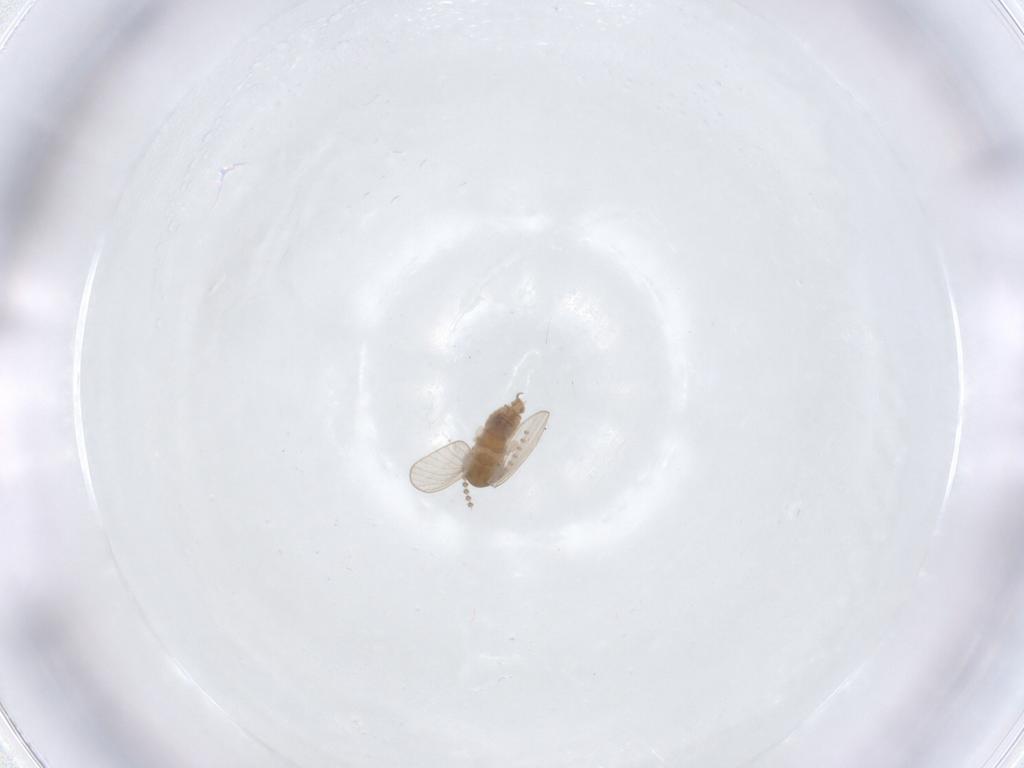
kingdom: Animalia
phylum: Arthropoda
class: Insecta
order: Diptera
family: Psychodidae
